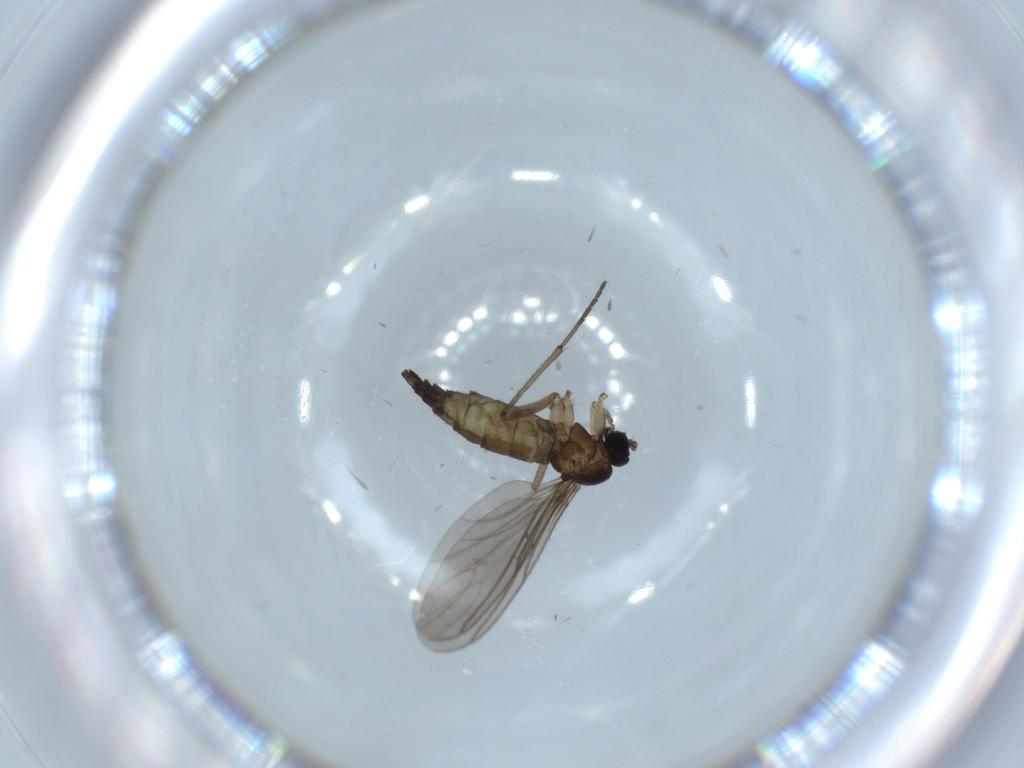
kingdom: Animalia
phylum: Arthropoda
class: Insecta
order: Diptera
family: Sciaridae
